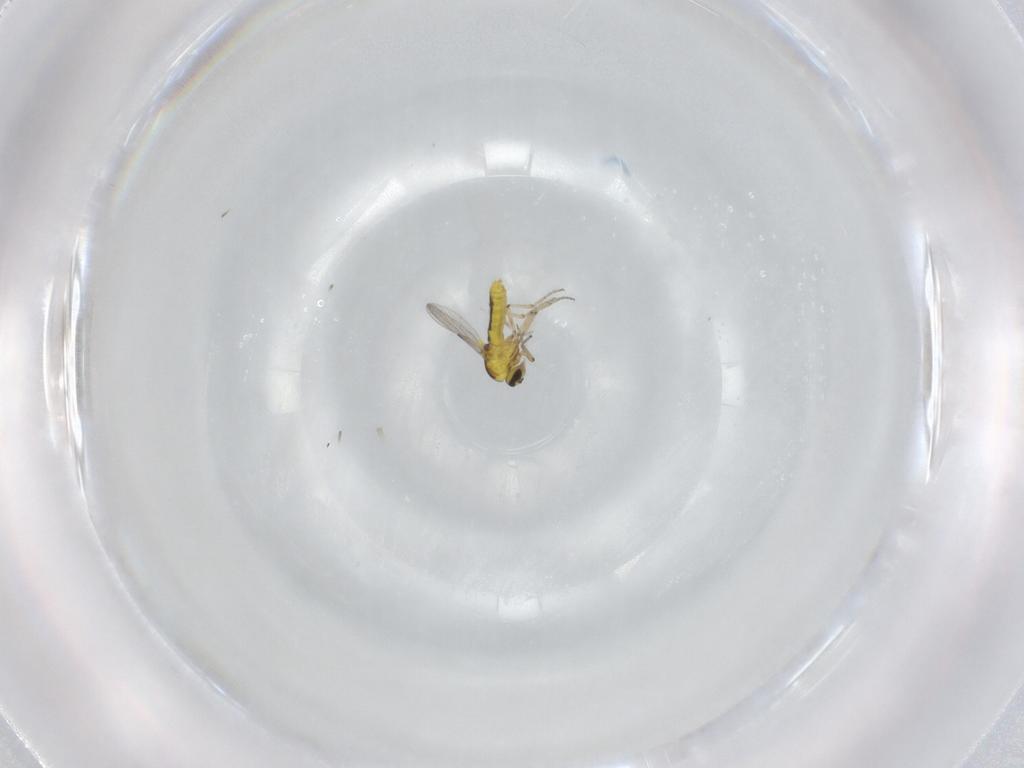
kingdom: Animalia
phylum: Arthropoda
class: Insecta
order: Diptera
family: Ceratopogonidae
